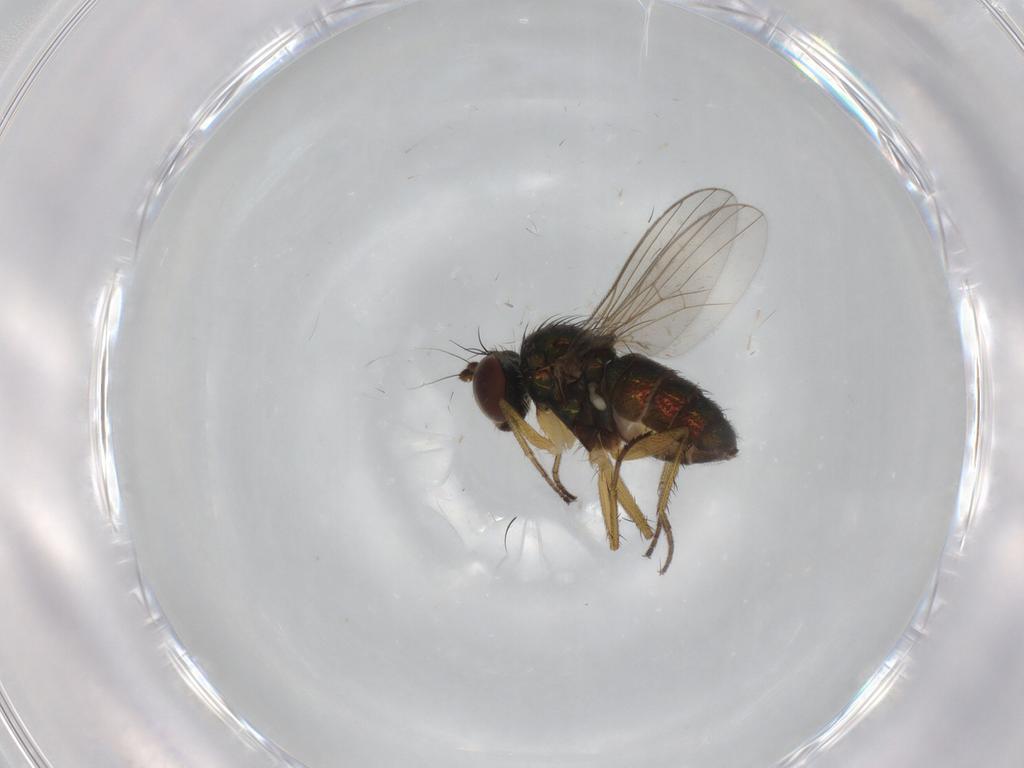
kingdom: Animalia
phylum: Arthropoda
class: Insecta
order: Diptera
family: Dolichopodidae
